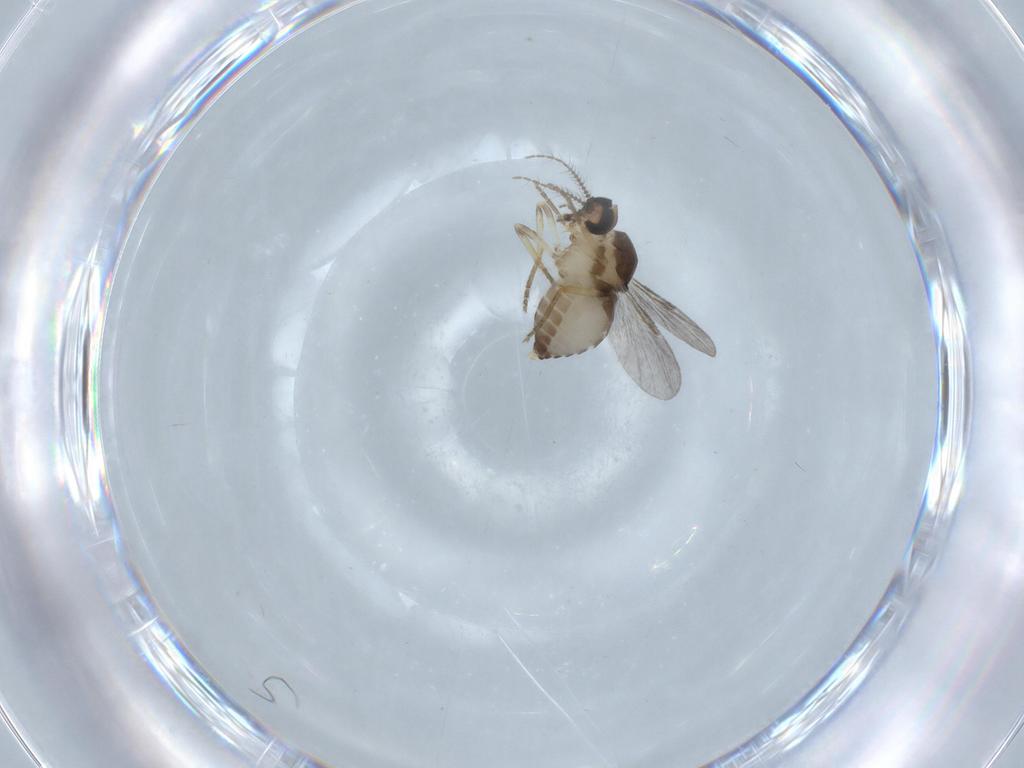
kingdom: Animalia
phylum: Arthropoda
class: Insecta
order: Diptera
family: Ceratopogonidae
